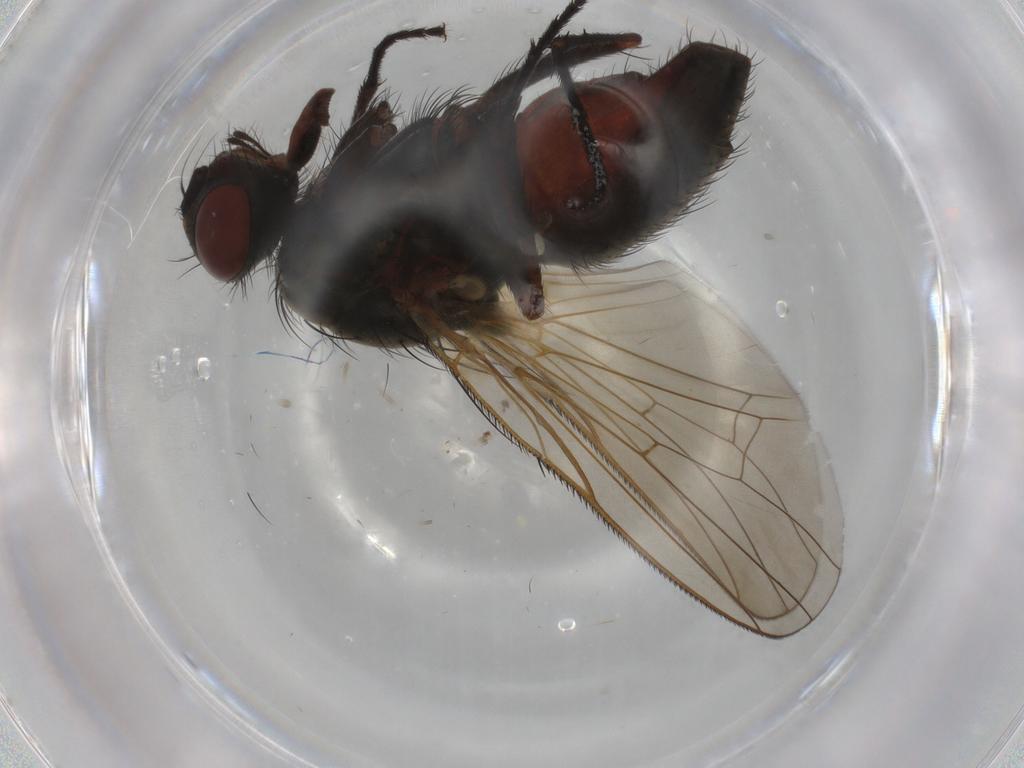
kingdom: Animalia
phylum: Arthropoda
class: Insecta
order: Diptera
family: Anthomyiidae
